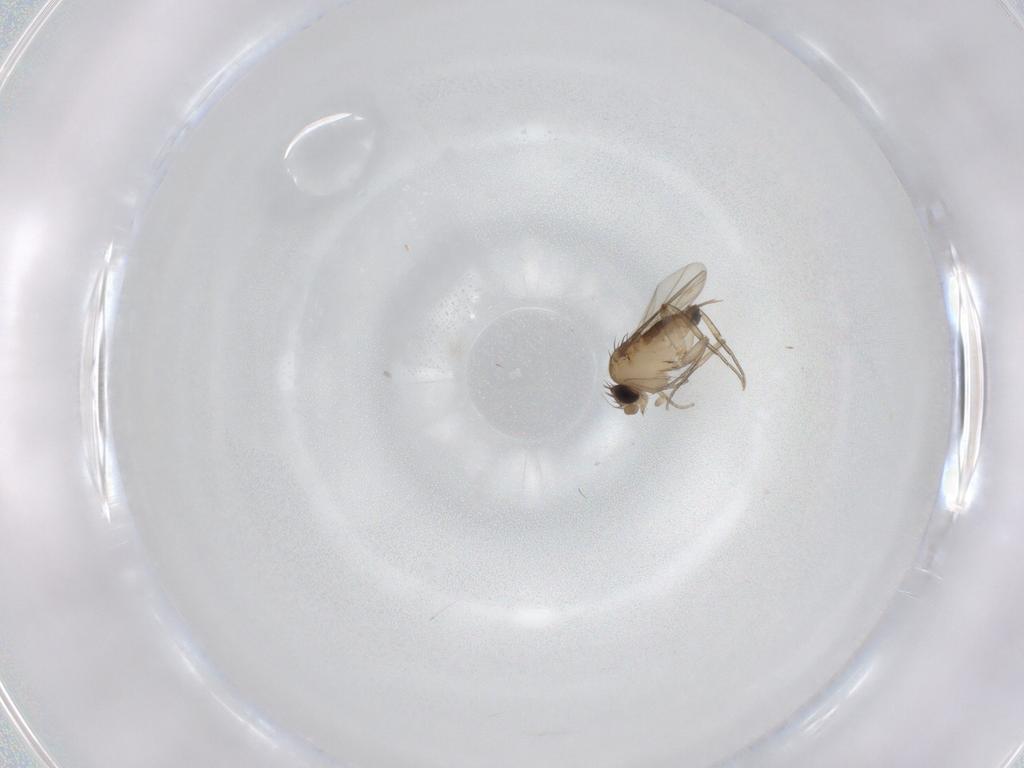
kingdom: Animalia
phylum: Arthropoda
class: Insecta
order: Diptera
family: Phoridae
